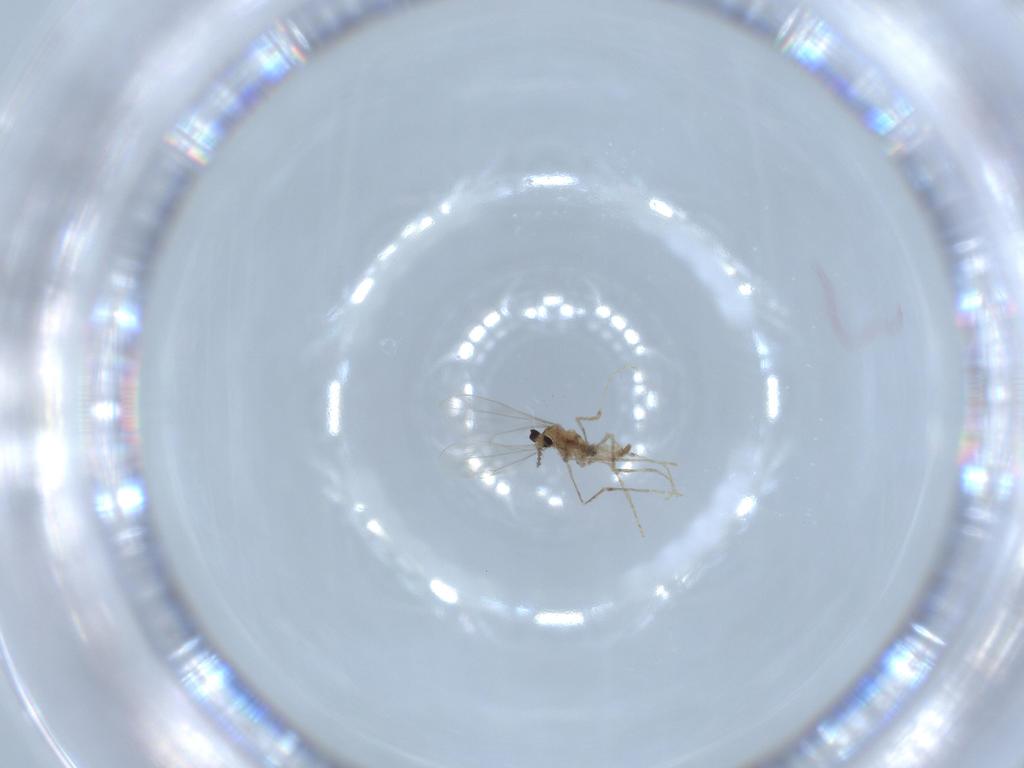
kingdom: Animalia
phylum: Arthropoda
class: Insecta
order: Diptera
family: Cecidomyiidae
